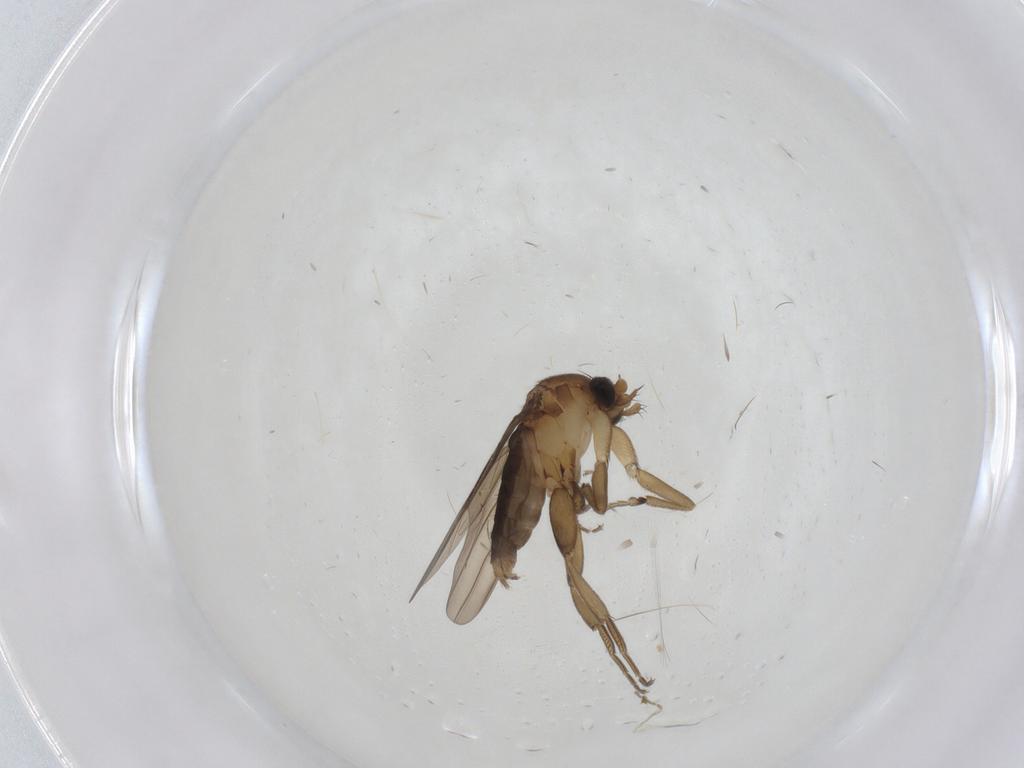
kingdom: Animalia
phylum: Arthropoda
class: Insecta
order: Diptera
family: Phoridae
